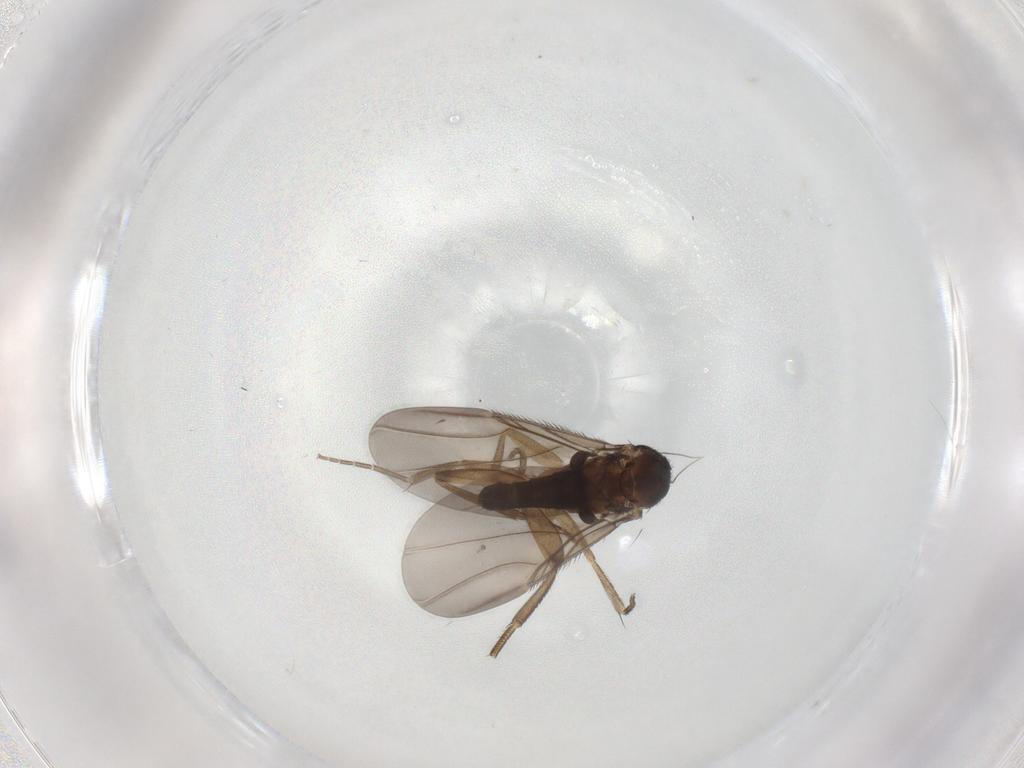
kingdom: Animalia
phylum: Arthropoda
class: Insecta
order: Diptera
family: Phoridae
